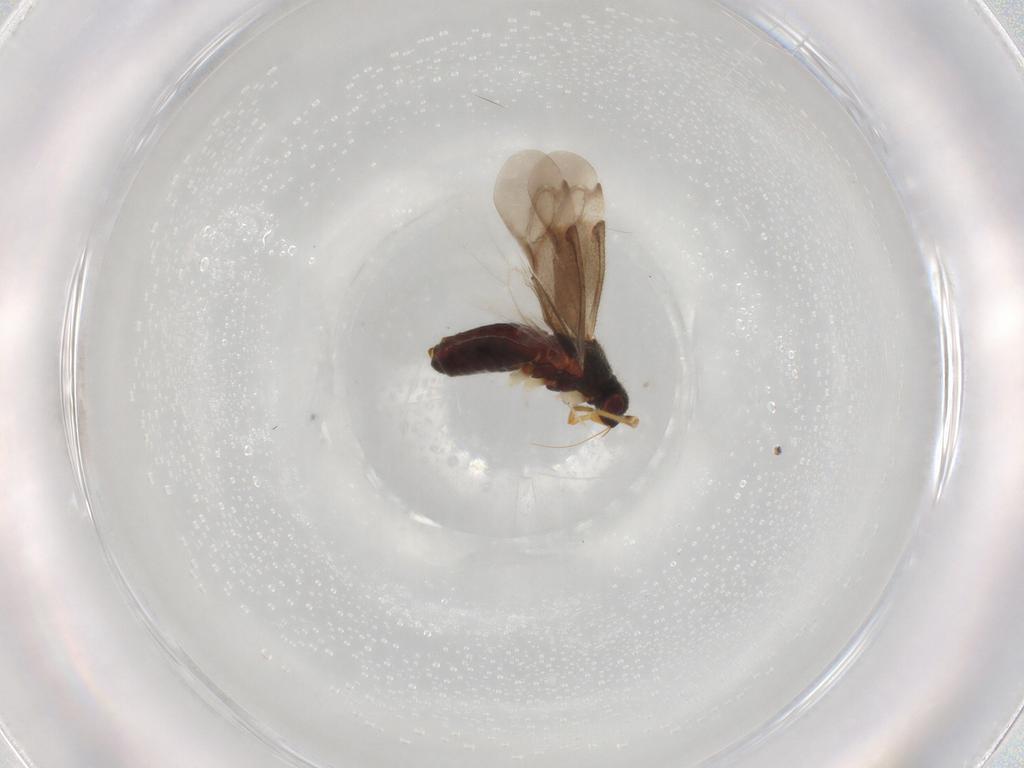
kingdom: Animalia
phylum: Arthropoda
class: Insecta
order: Hemiptera
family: Miridae
